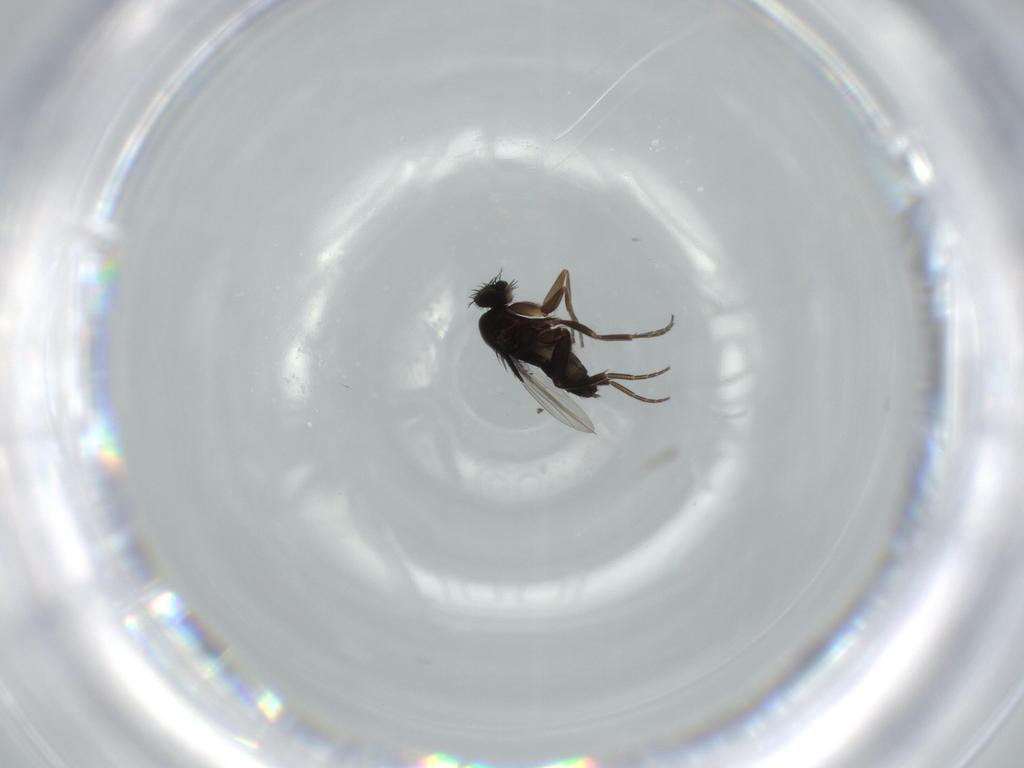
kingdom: Animalia
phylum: Arthropoda
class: Insecta
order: Diptera
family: Phoridae
